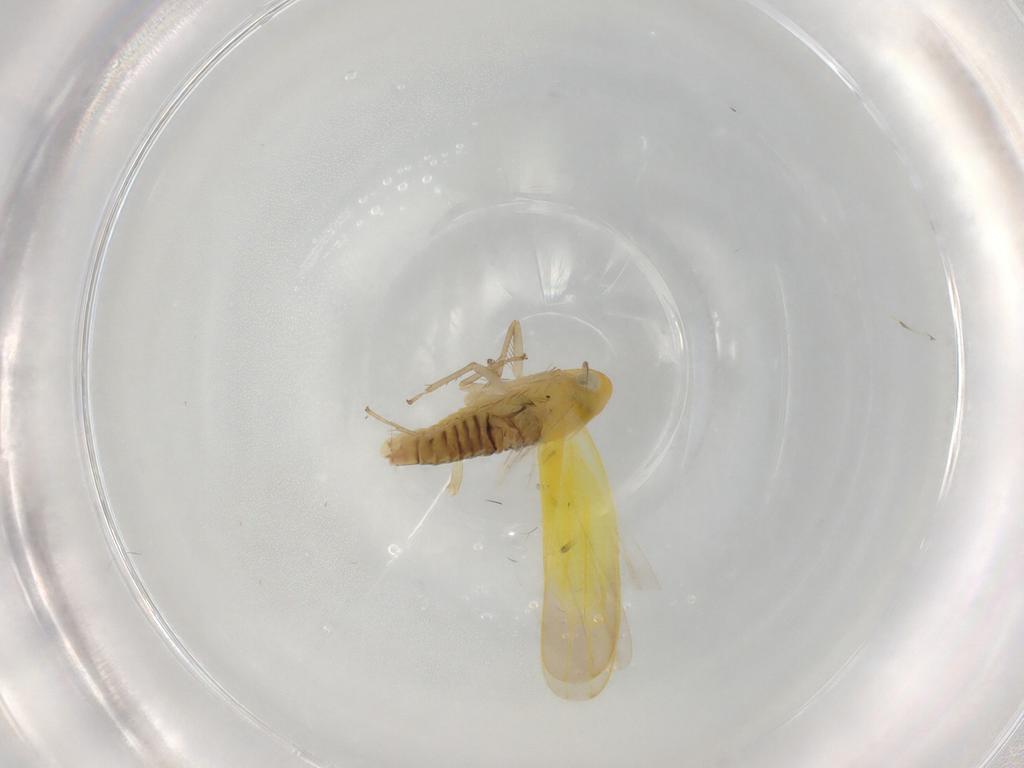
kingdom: Animalia
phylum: Arthropoda
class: Insecta
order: Hemiptera
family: Cicadellidae
